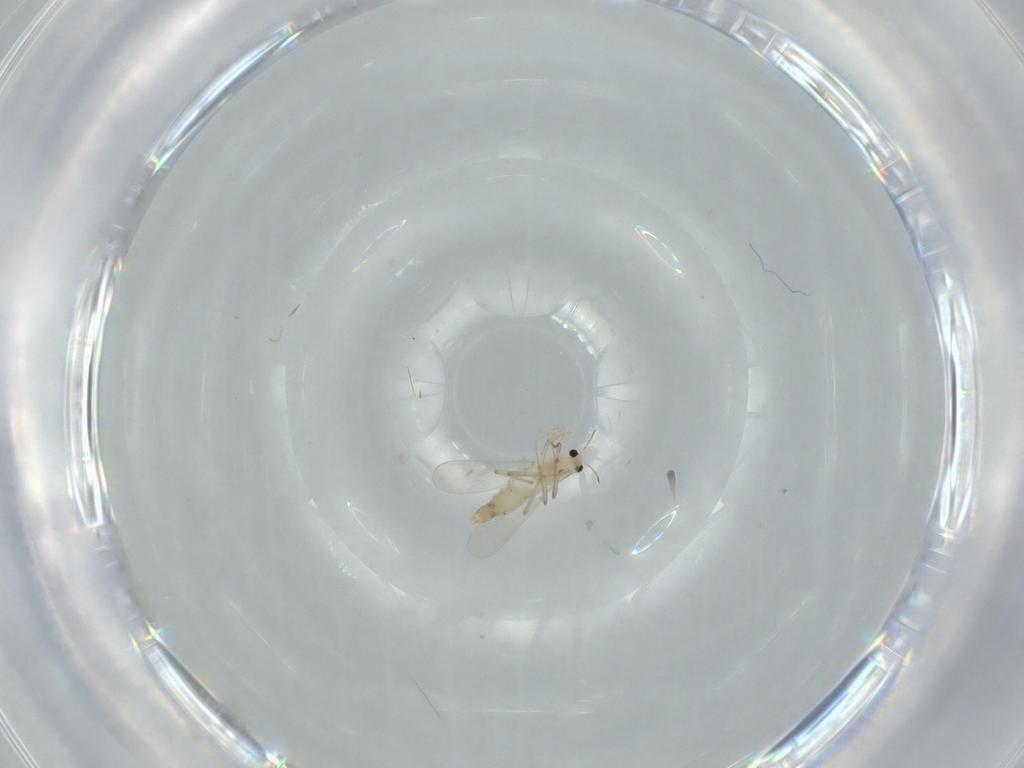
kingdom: Animalia
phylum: Arthropoda
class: Insecta
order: Diptera
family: Chironomidae
